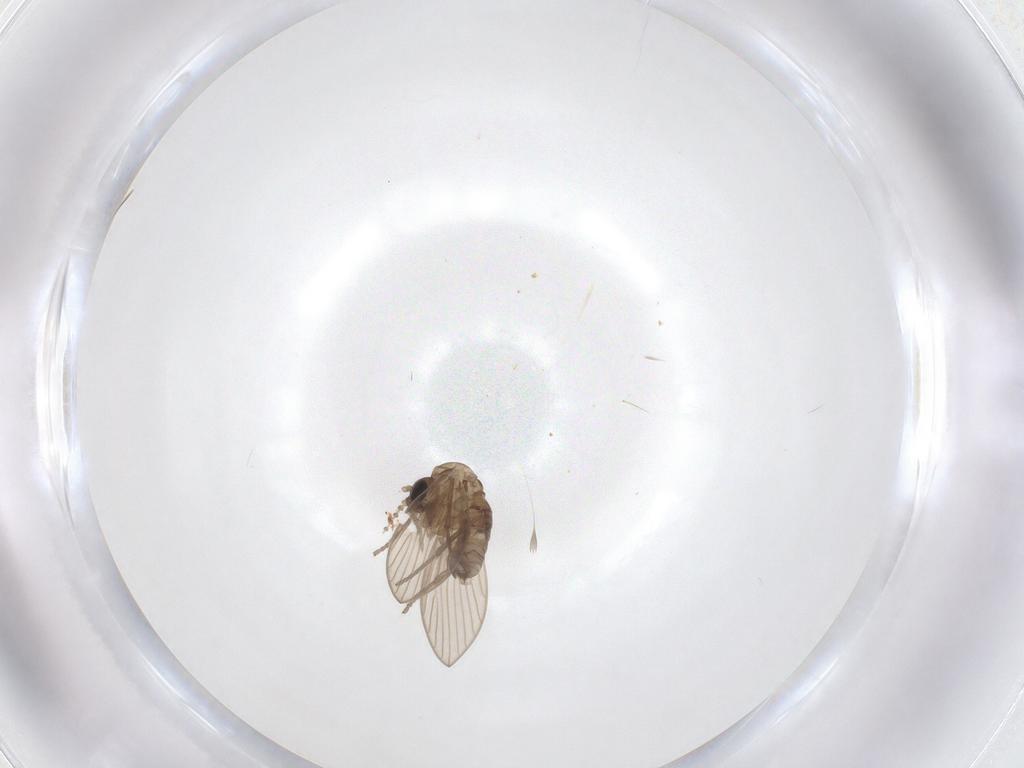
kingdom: Animalia
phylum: Arthropoda
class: Insecta
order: Diptera
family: Psychodidae
